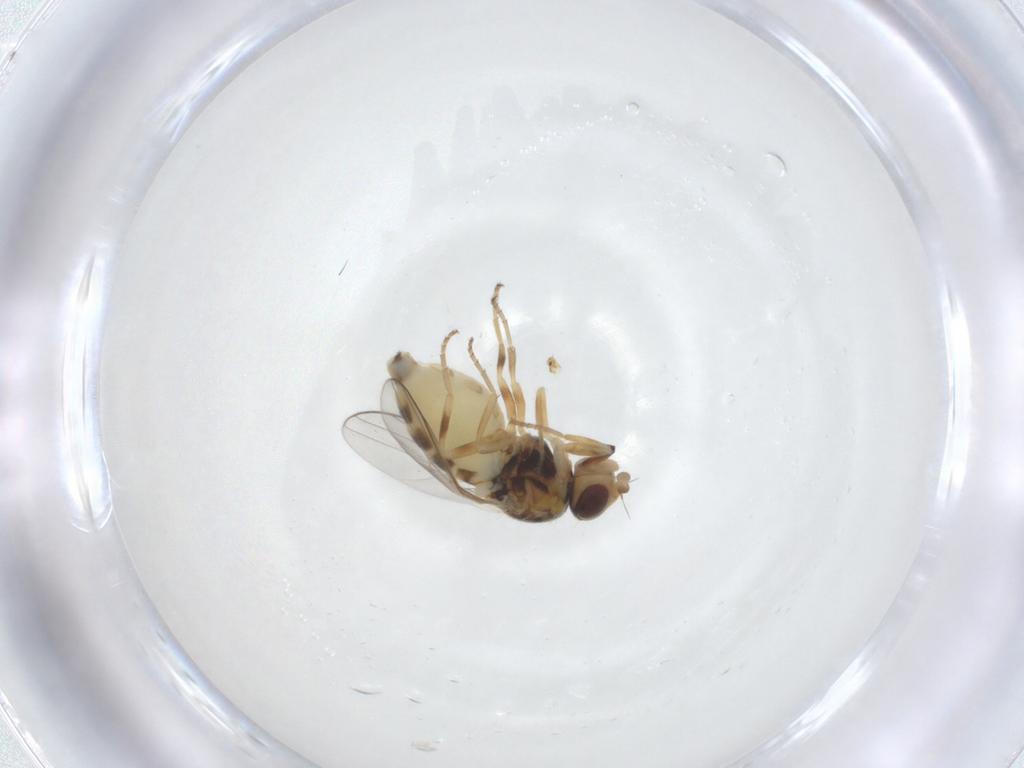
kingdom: Animalia
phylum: Arthropoda
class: Insecta
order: Diptera
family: Chloropidae
